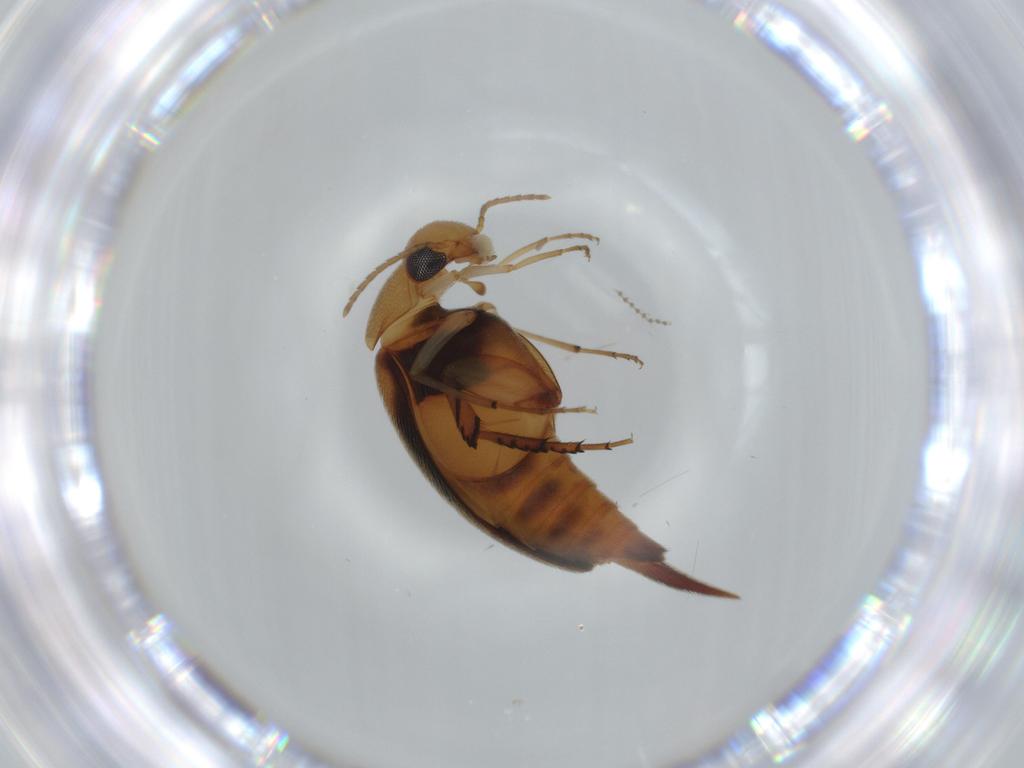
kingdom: Animalia
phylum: Arthropoda
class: Insecta
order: Coleoptera
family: Mordellidae
